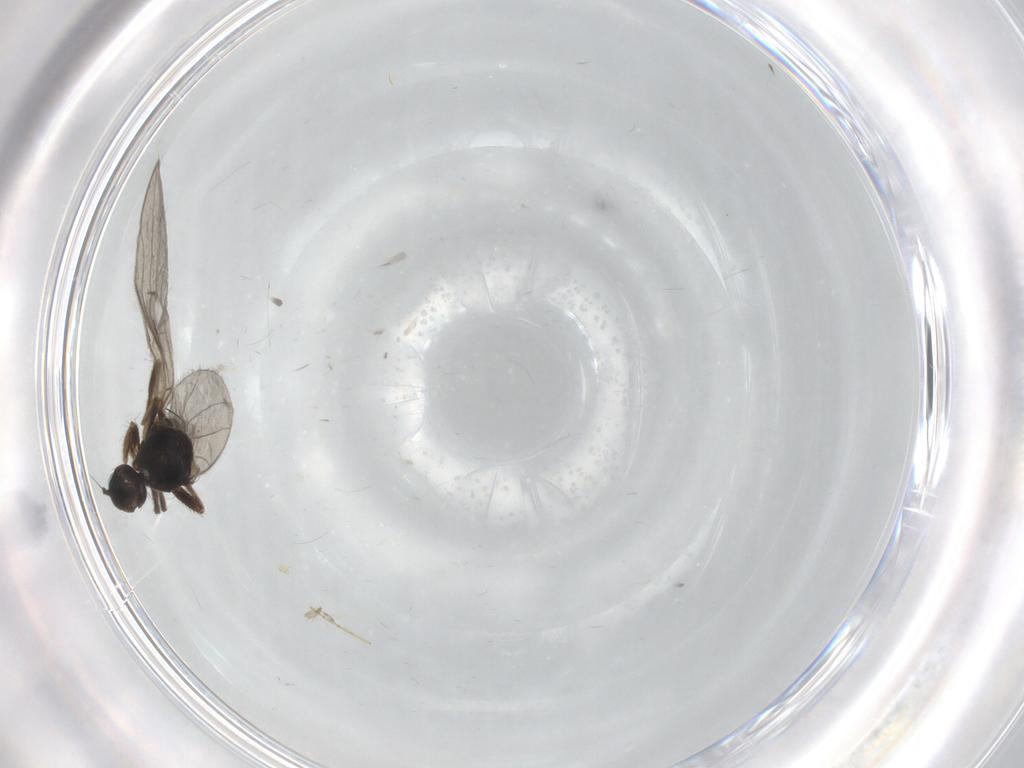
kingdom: Animalia
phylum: Arthropoda
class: Insecta
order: Diptera
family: Hybotidae
